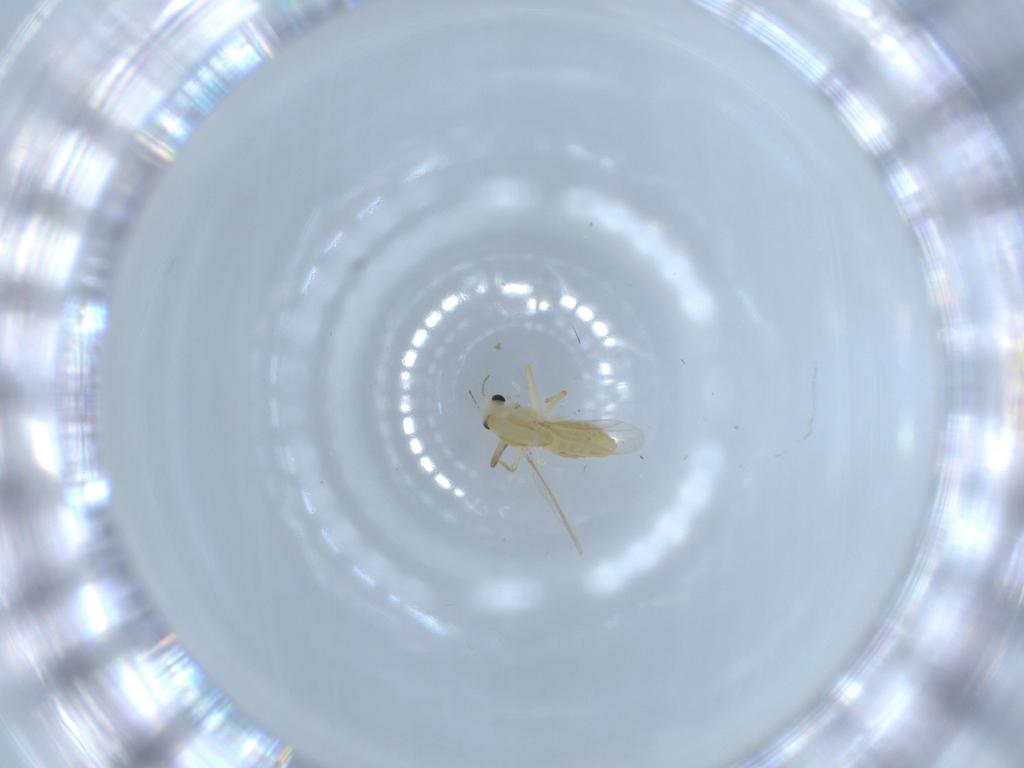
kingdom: Animalia
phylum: Arthropoda
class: Insecta
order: Diptera
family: Chironomidae
